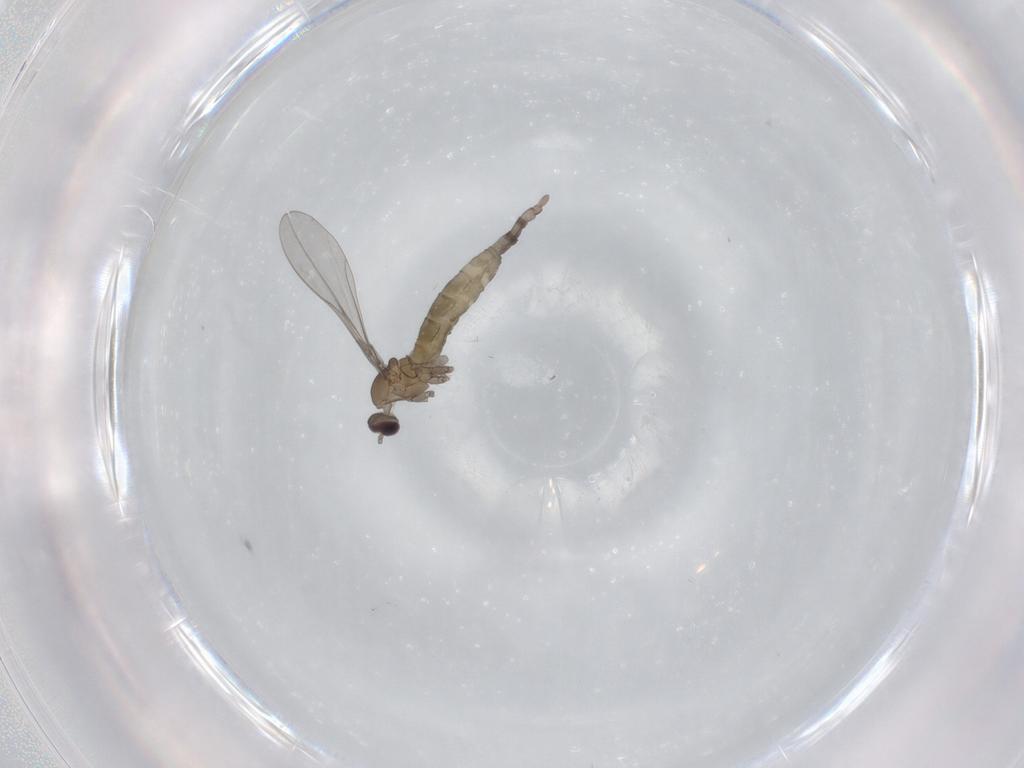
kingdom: Animalia
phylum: Arthropoda
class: Insecta
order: Diptera
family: Cecidomyiidae
